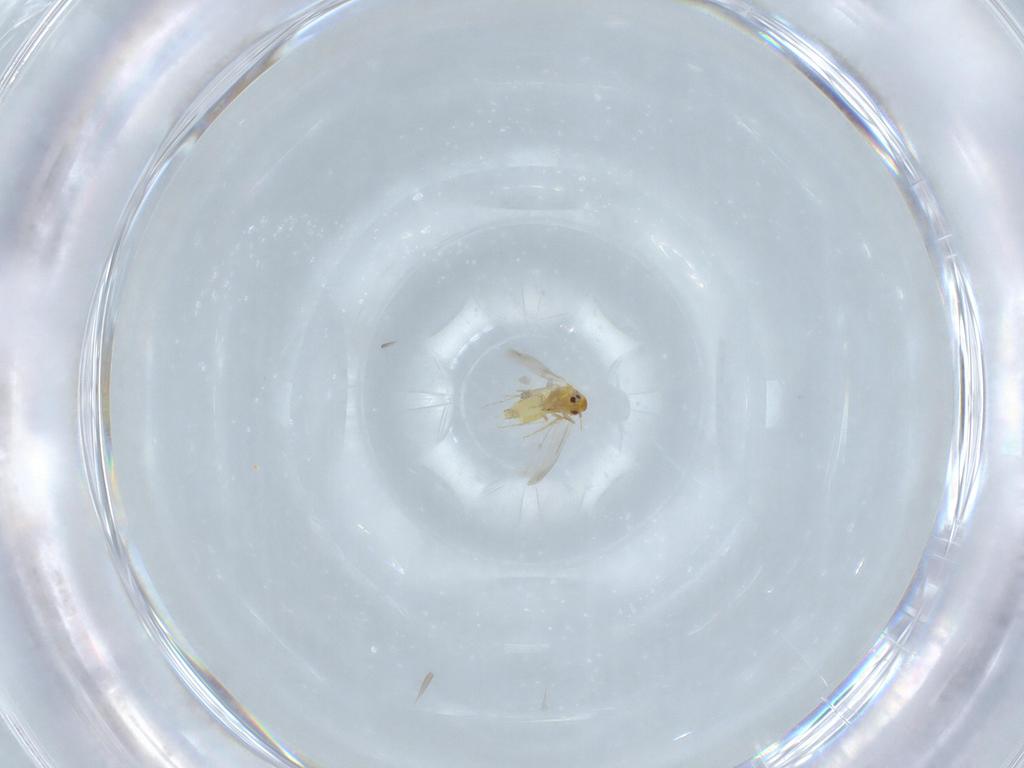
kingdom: Animalia
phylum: Arthropoda
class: Insecta
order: Hemiptera
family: Aleyrodidae
